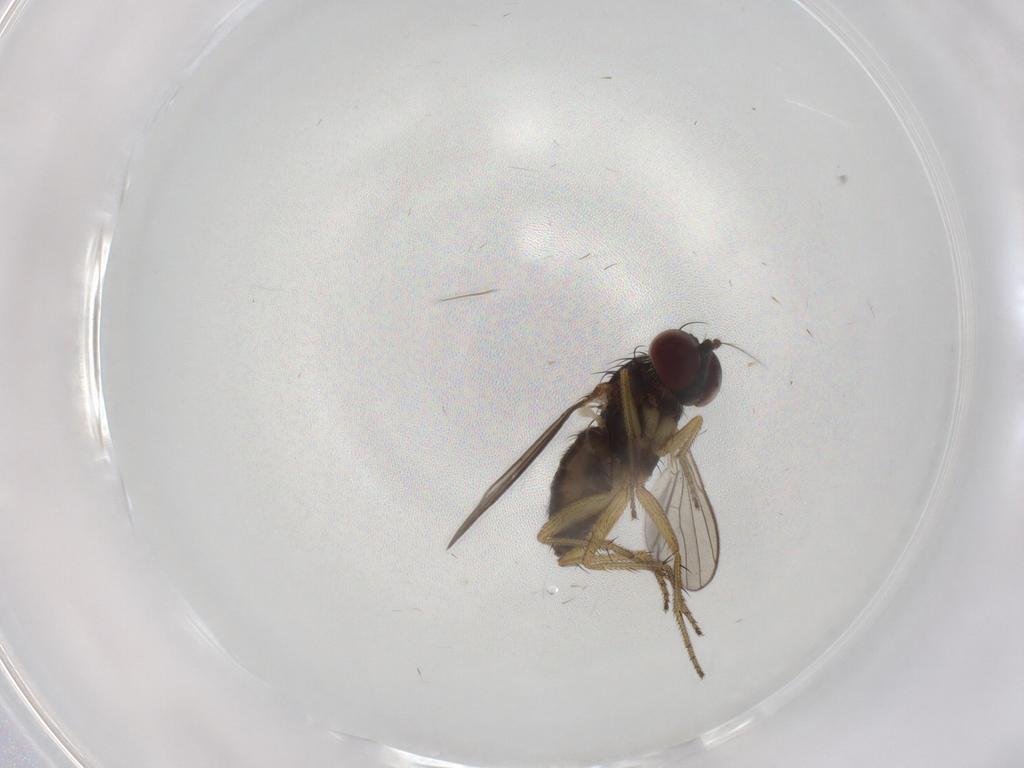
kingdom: Animalia
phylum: Arthropoda
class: Insecta
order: Diptera
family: Dolichopodidae
